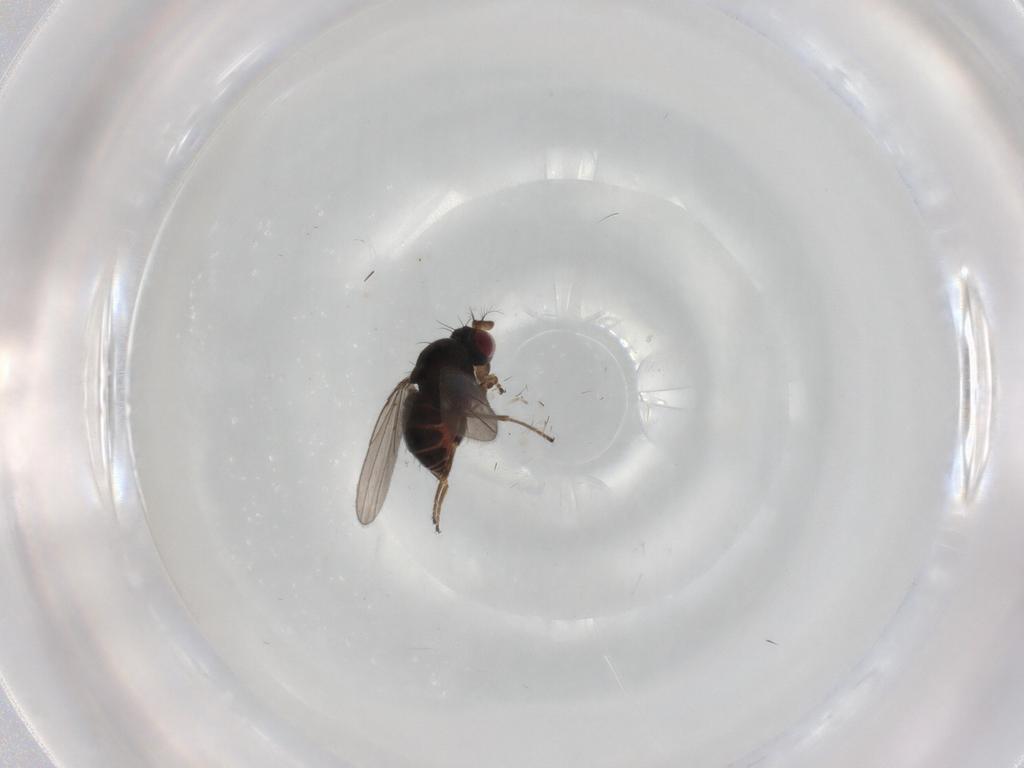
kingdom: Animalia
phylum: Arthropoda
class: Insecta
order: Diptera
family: Ephydridae
